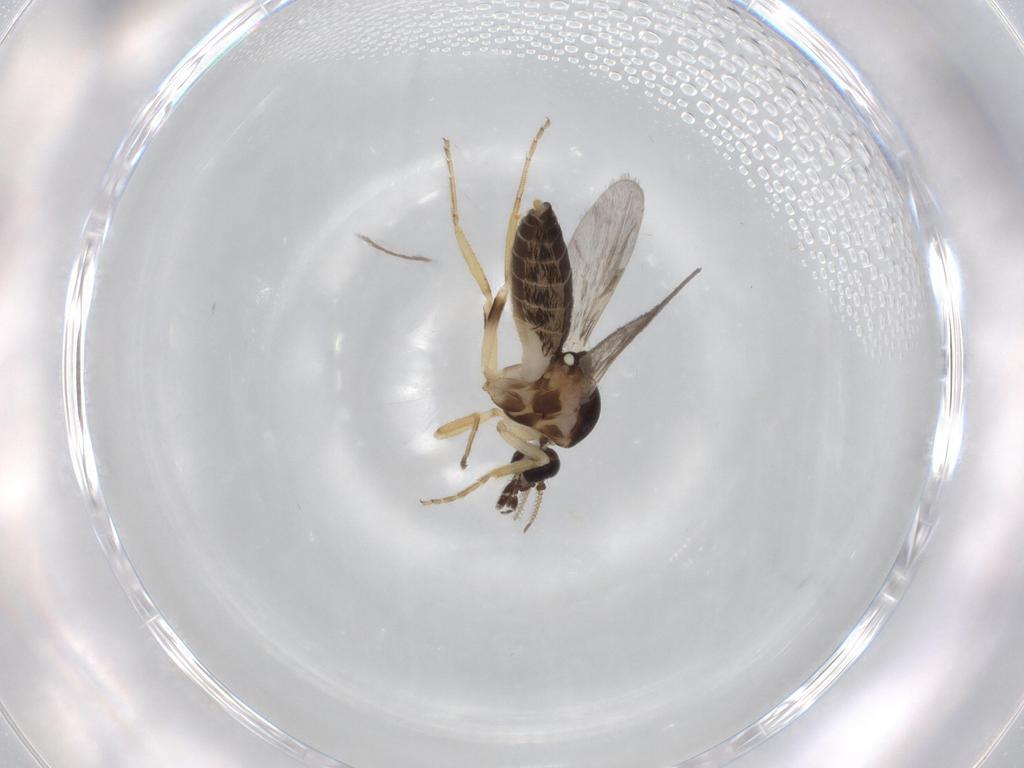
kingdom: Animalia
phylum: Arthropoda
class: Insecta
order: Diptera
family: Ceratopogonidae
